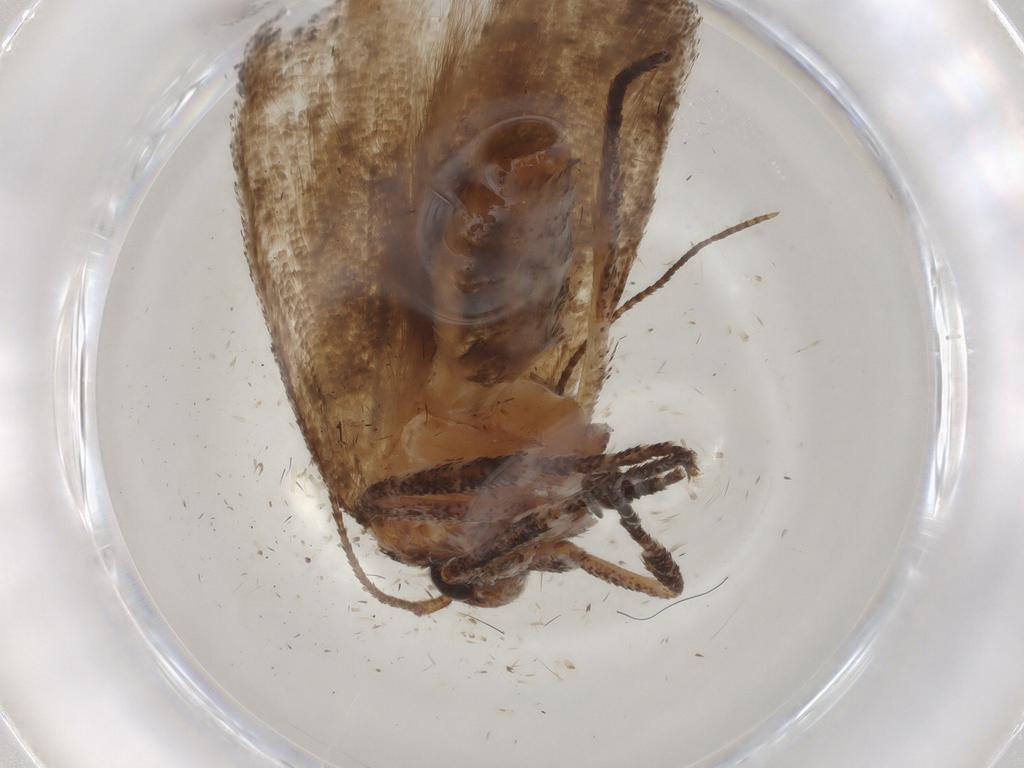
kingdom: Animalia
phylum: Arthropoda
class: Insecta
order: Lepidoptera
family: Cosmopterigidae
